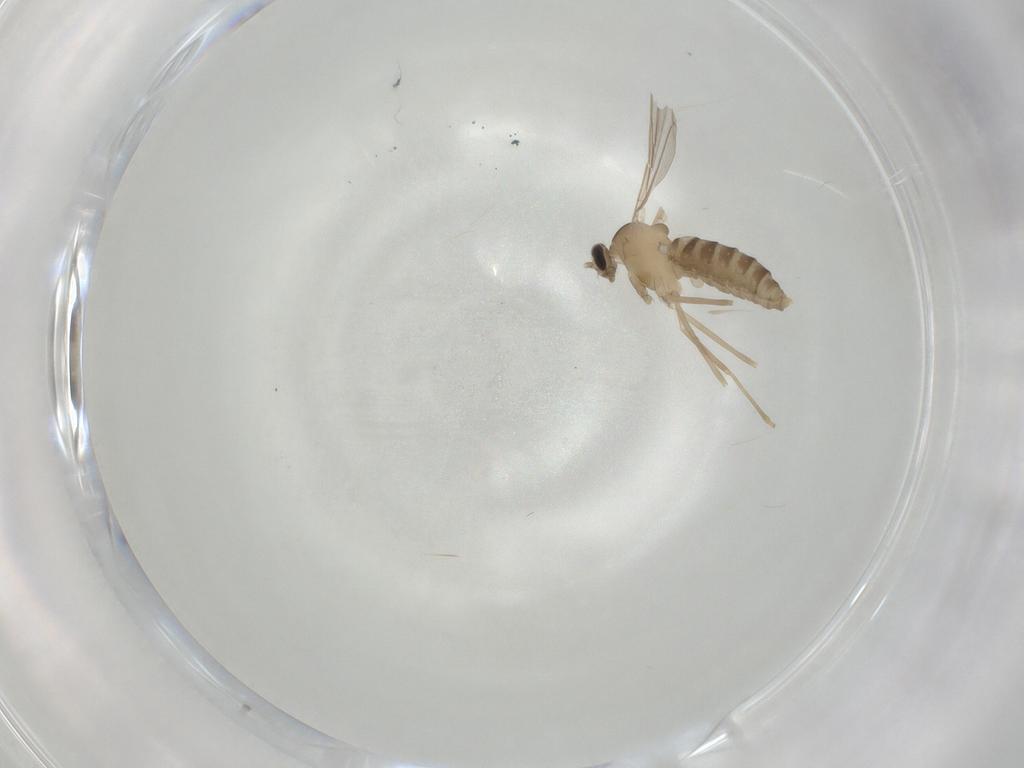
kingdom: Animalia
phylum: Arthropoda
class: Insecta
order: Diptera
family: Cecidomyiidae
